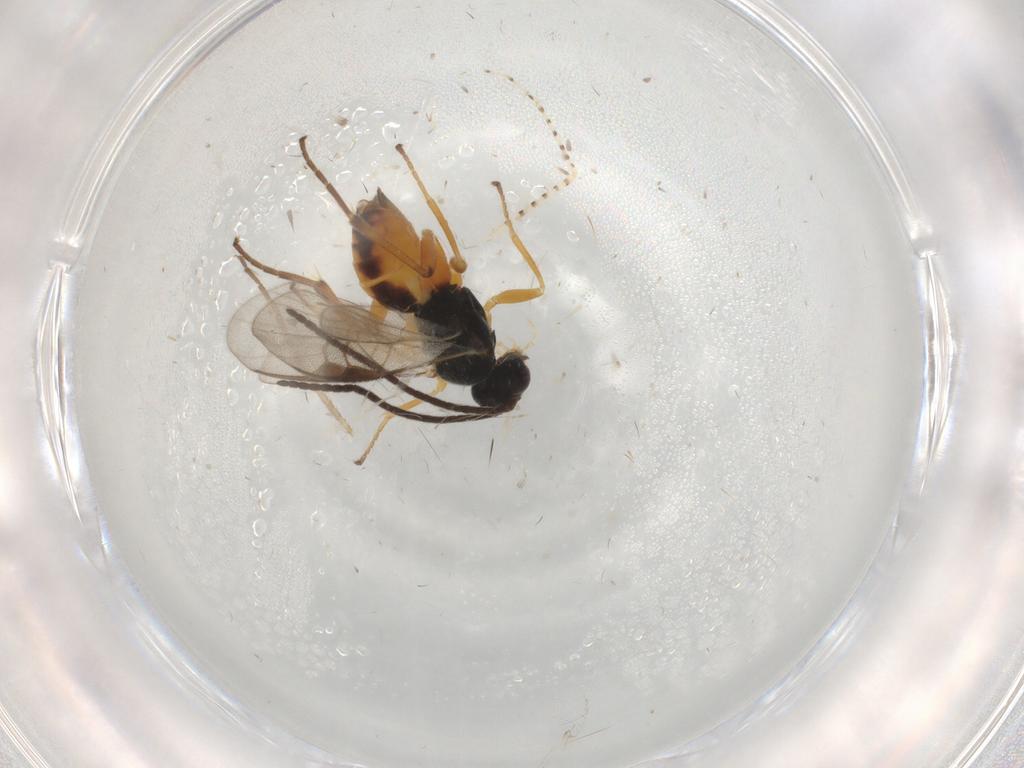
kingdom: Animalia
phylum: Arthropoda
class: Insecta
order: Hymenoptera
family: Braconidae
